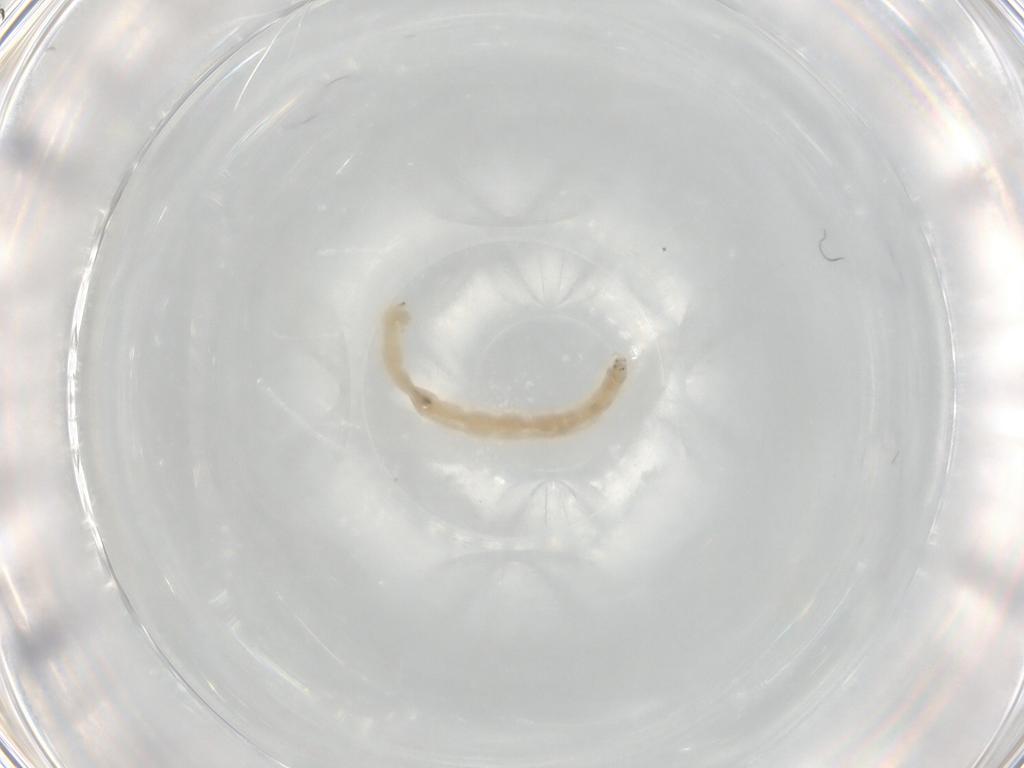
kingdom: Animalia
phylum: Arthropoda
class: Insecta
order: Diptera
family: Chironomidae
